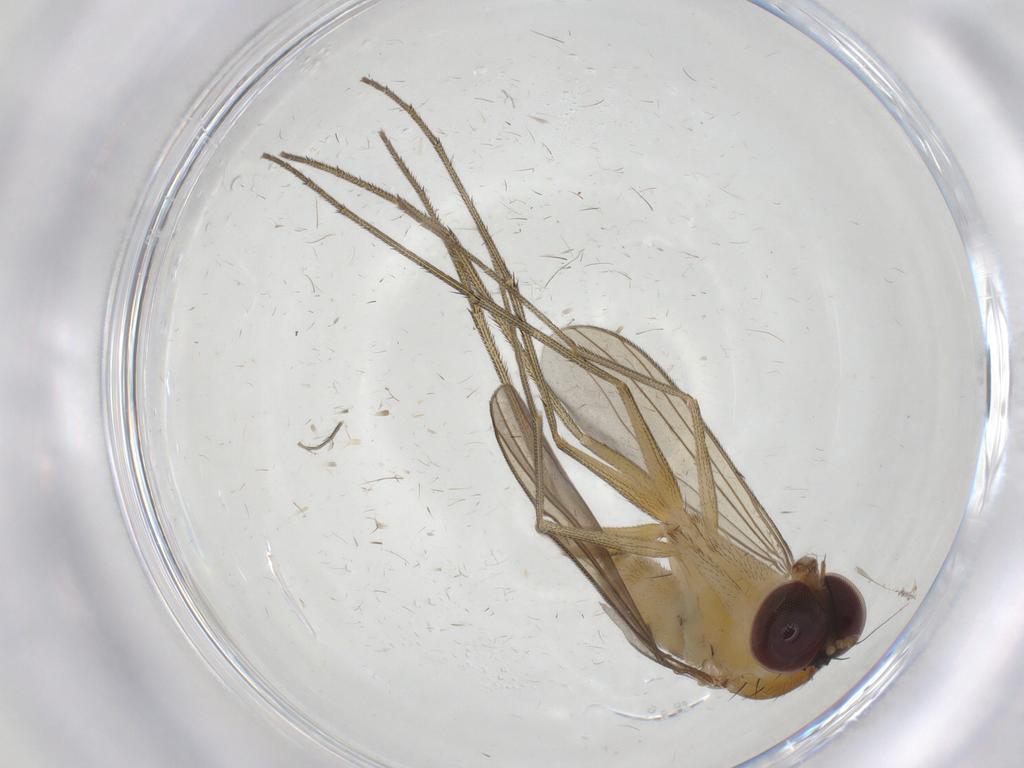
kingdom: Animalia
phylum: Arthropoda
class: Insecta
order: Diptera
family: Dolichopodidae
